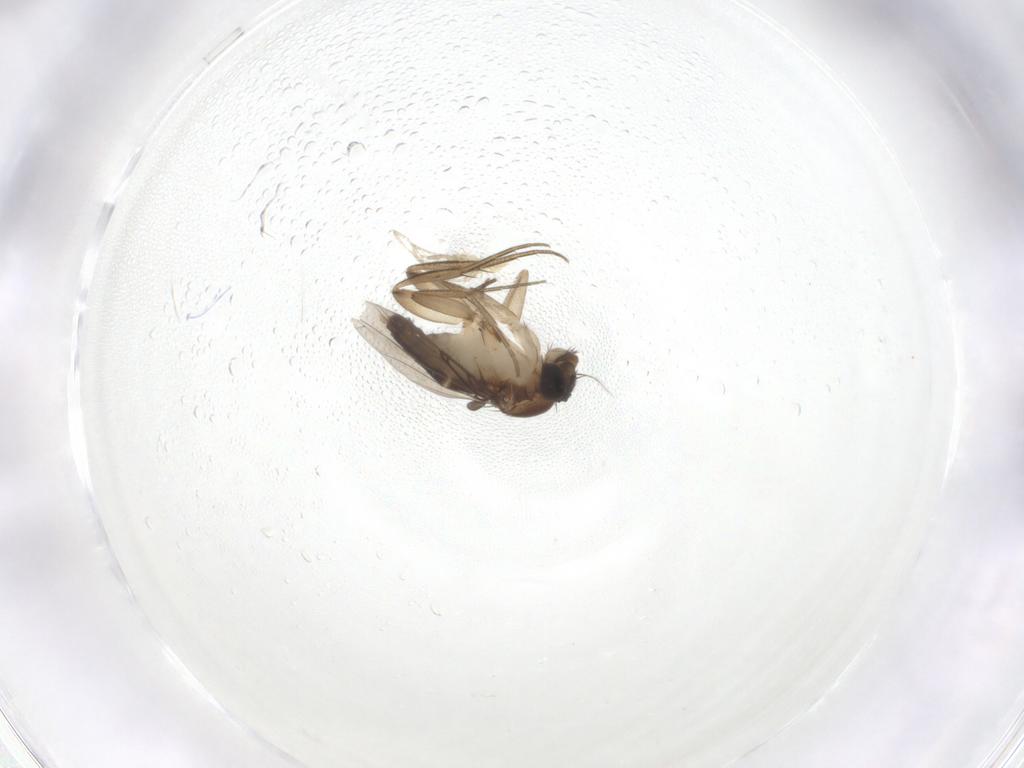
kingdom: Animalia
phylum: Arthropoda
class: Insecta
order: Diptera
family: Phoridae
